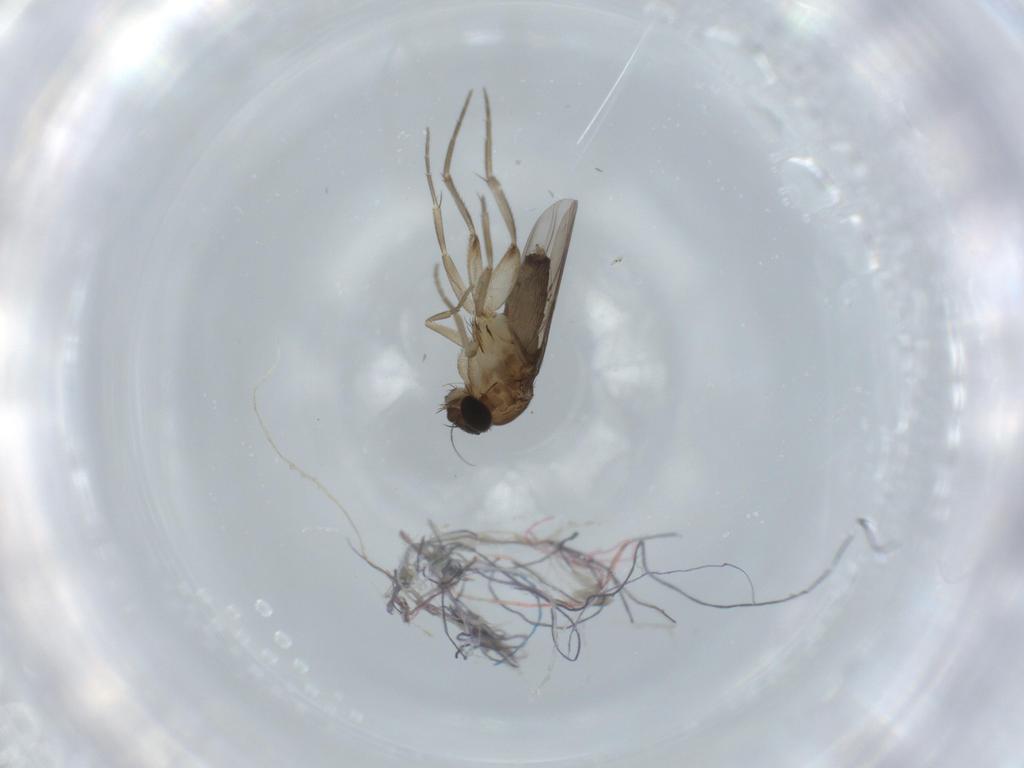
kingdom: Animalia
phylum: Arthropoda
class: Insecta
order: Diptera
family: Phoridae
